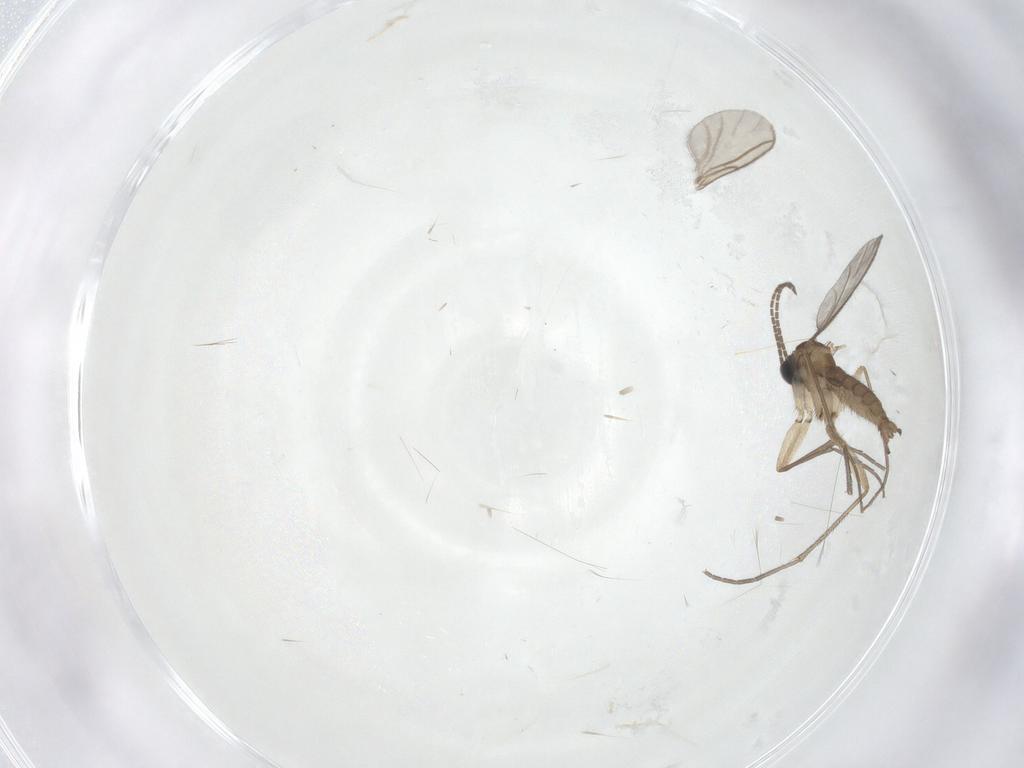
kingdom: Animalia
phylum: Arthropoda
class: Insecta
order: Diptera
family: Sciaridae
